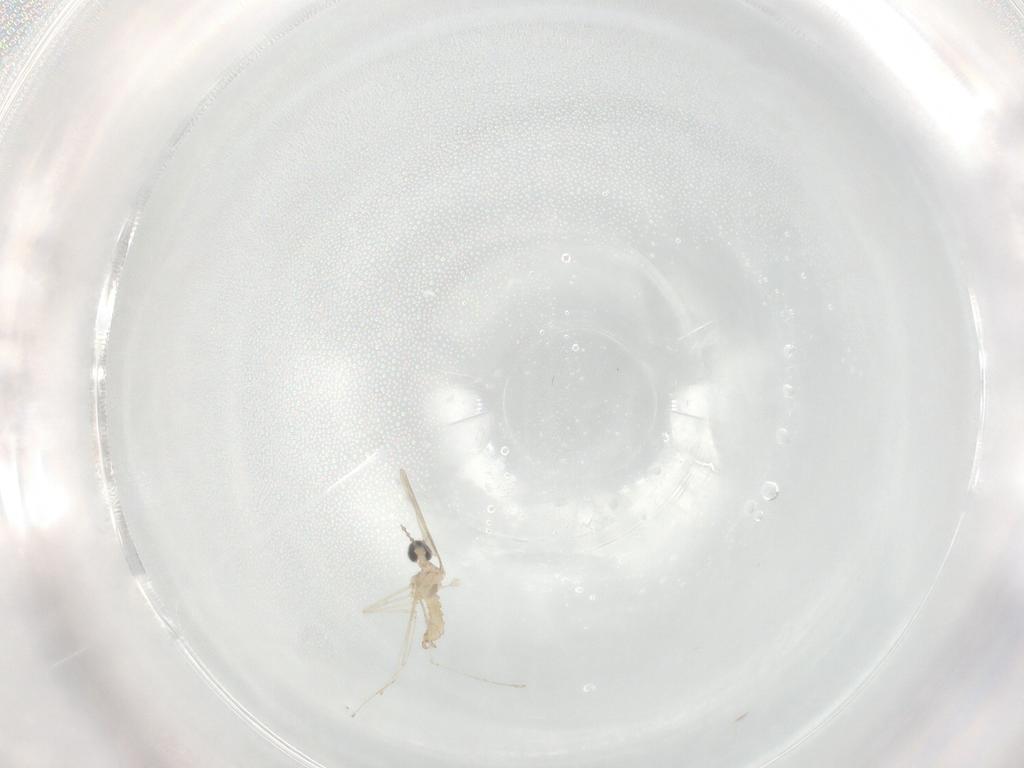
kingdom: Animalia
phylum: Arthropoda
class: Insecta
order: Diptera
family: Cecidomyiidae
